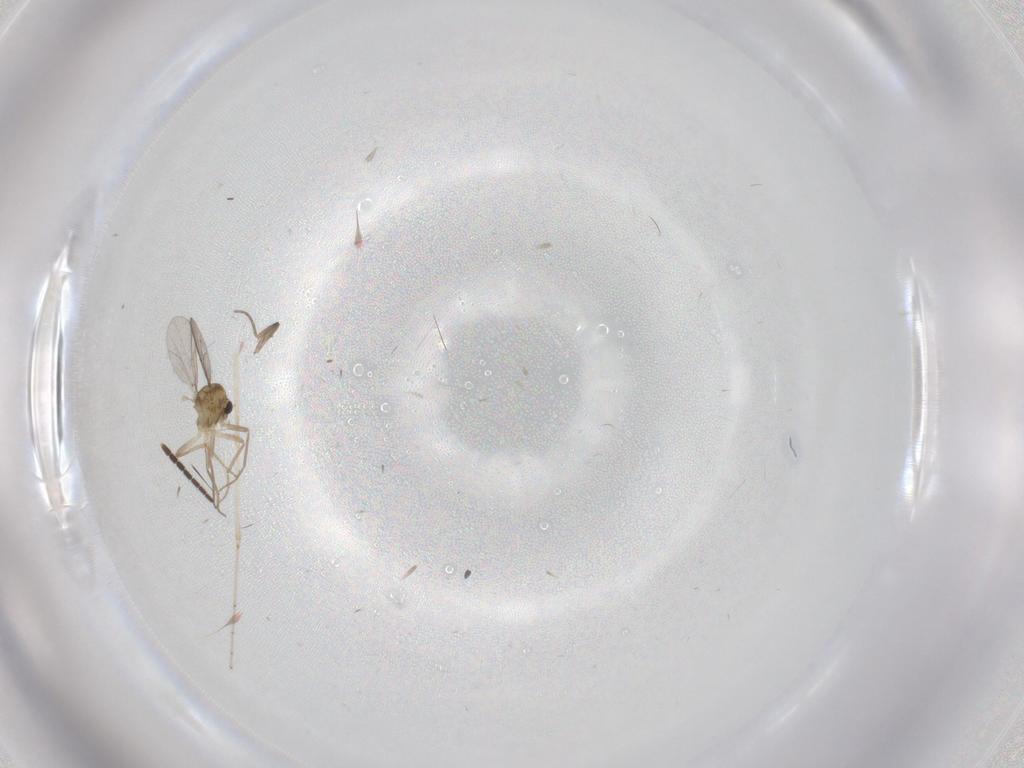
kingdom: Animalia
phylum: Arthropoda
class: Insecta
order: Diptera
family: Chironomidae
